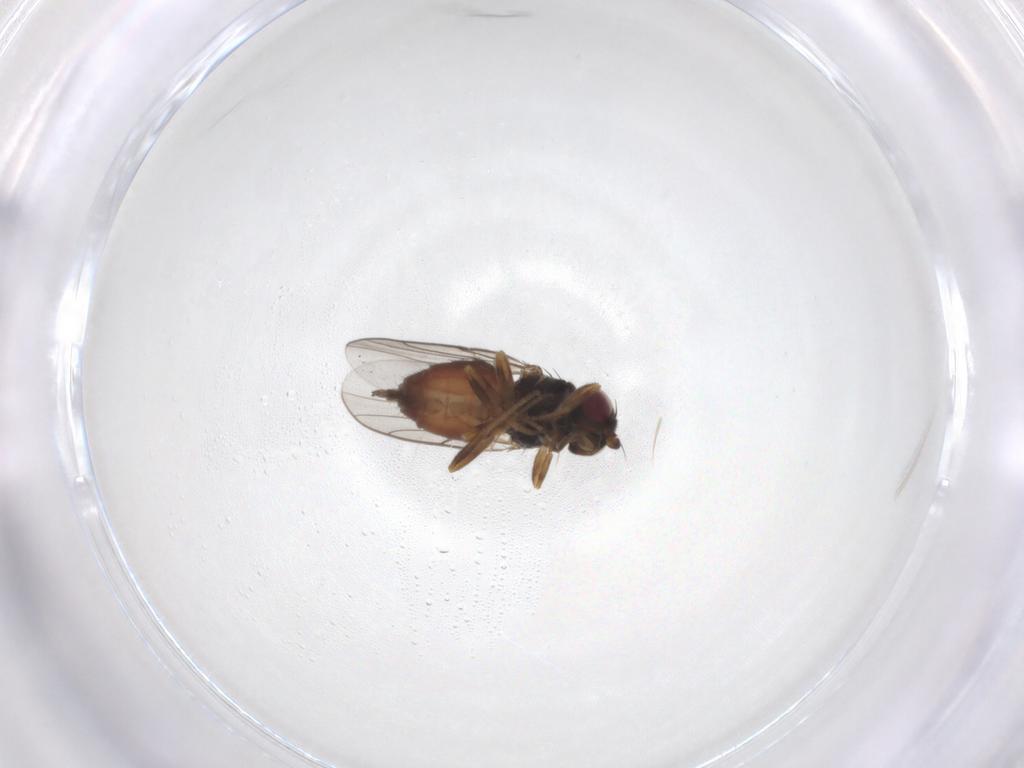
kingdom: Animalia
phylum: Arthropoda
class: Insecta
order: Diptera
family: Chloropidae
